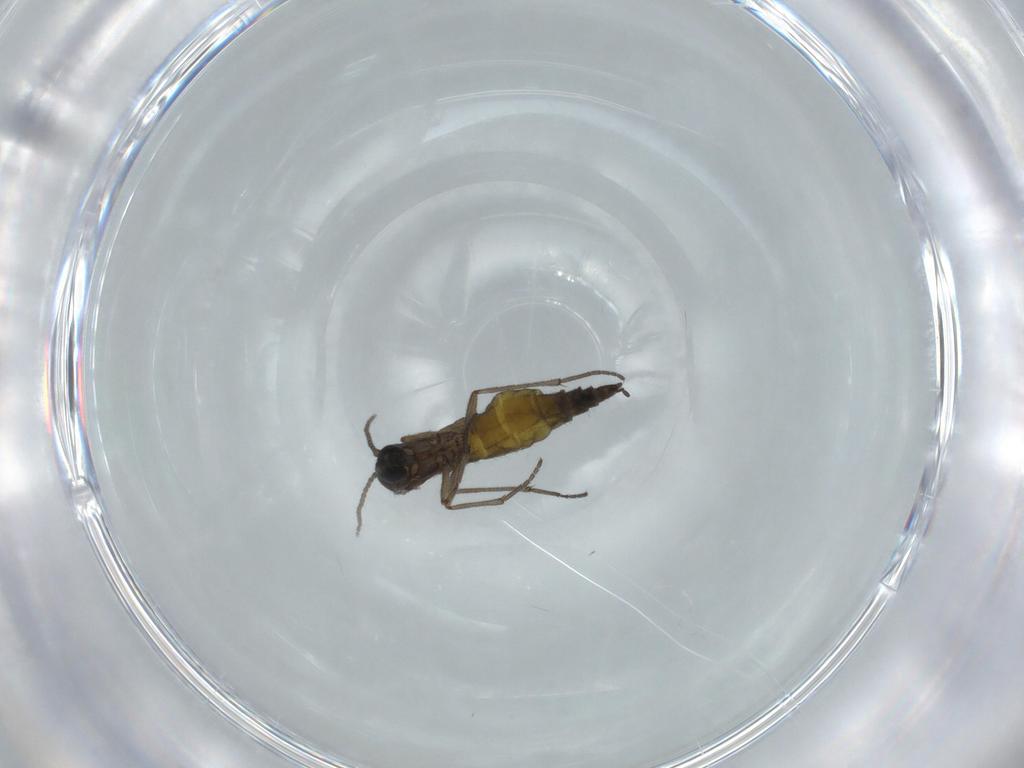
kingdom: Animalia
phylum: Arthropoda
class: Insecta
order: Diptera
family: Sciaridae
